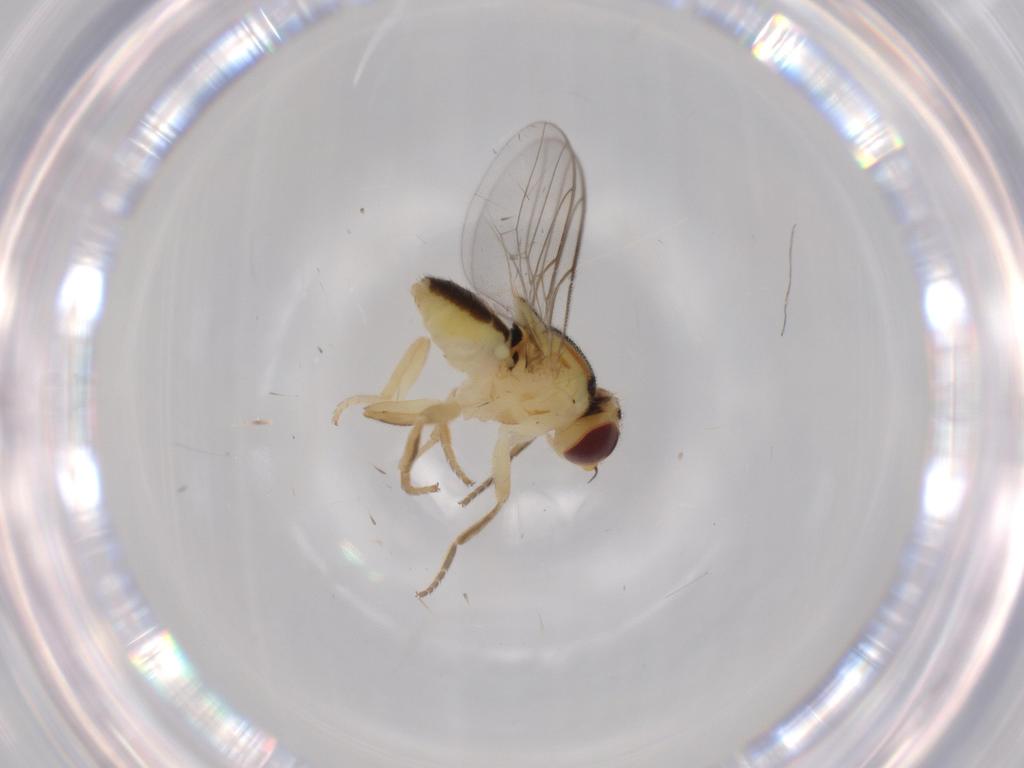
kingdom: Animalia
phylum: Arthropoda
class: Insecta
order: Diptera
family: Chloropidae
